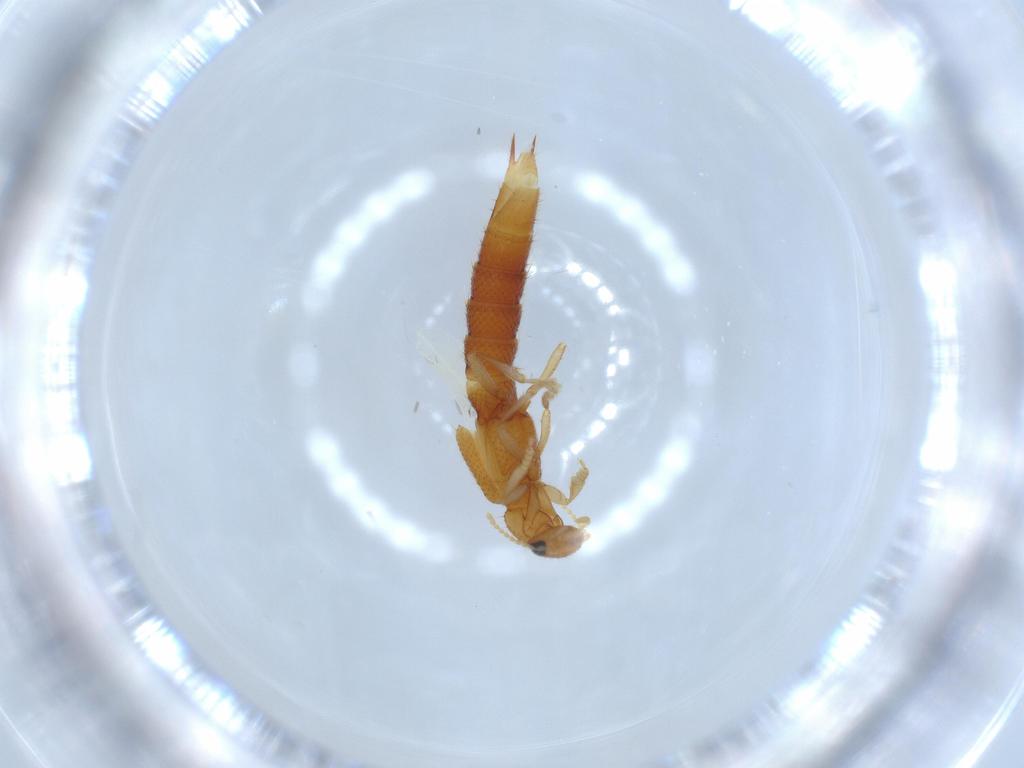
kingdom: Animalia
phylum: Arthropoda
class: Insecta
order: Coleoptera
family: Staphylinidae
